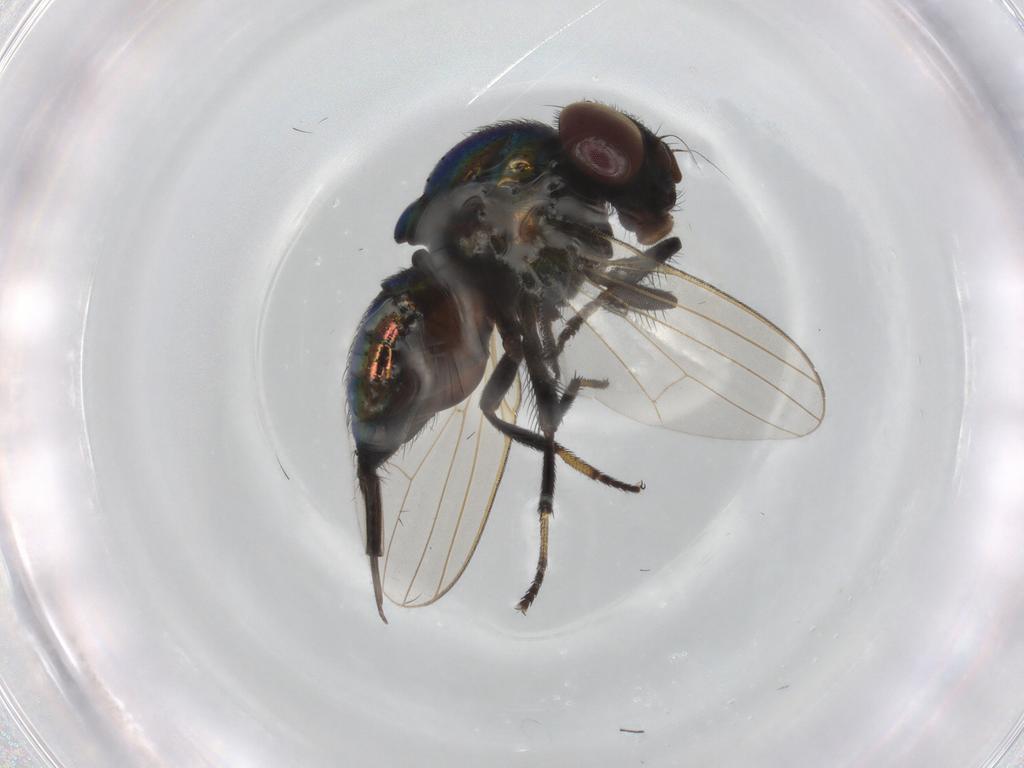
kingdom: Animalia
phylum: Arthropoda
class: Insecta
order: Diptera
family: Lonchaeidae
